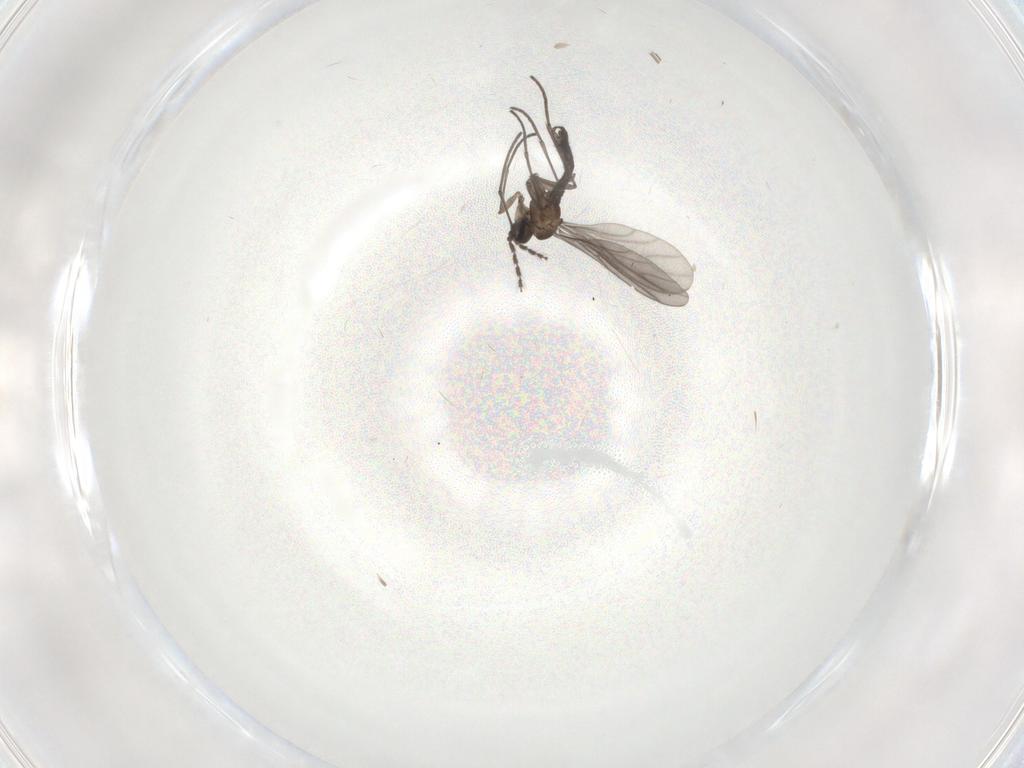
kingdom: Animalia
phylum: Arthropoda
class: Insecta
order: Diptera
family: Sciaridae
